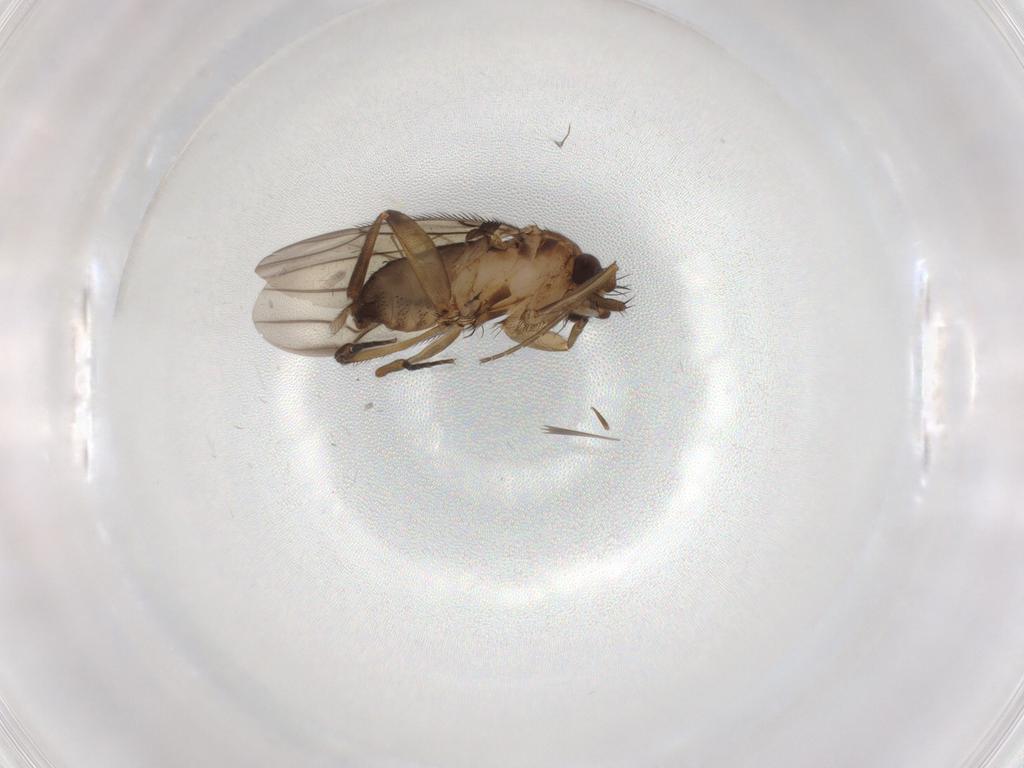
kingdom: Animalia
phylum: Arthropoda
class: Insecta
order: Diptera
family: Phoridae
